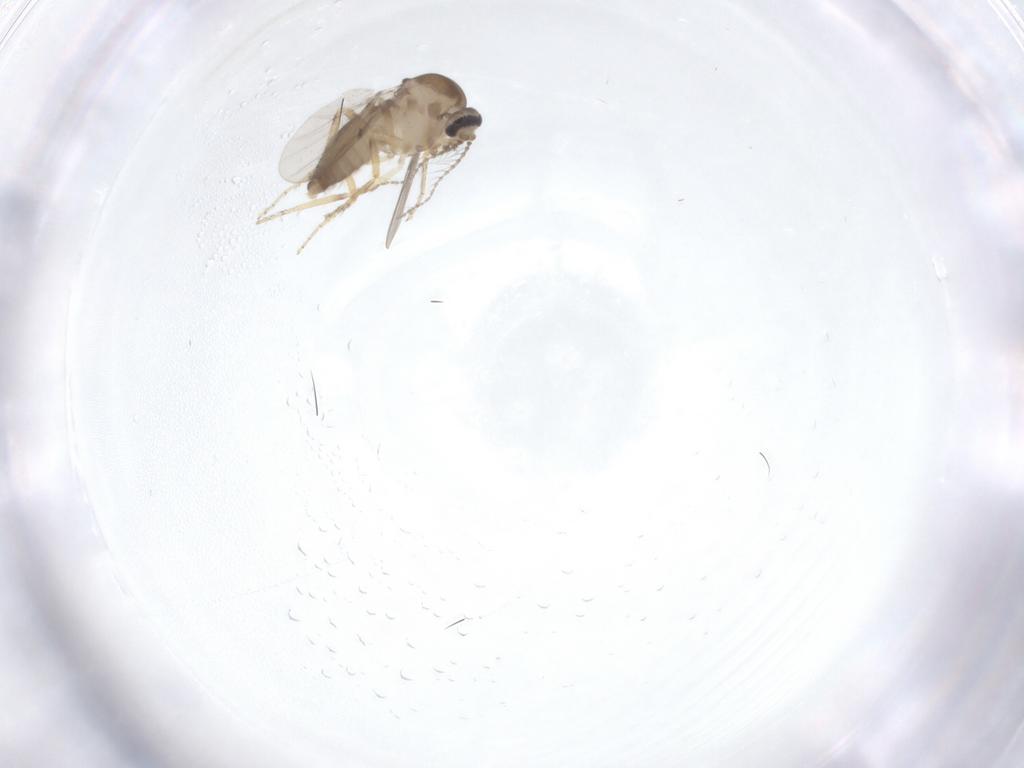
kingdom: Animalia
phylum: Arthropoda
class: Insecta
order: Diptera
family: Ceratopogonidae
